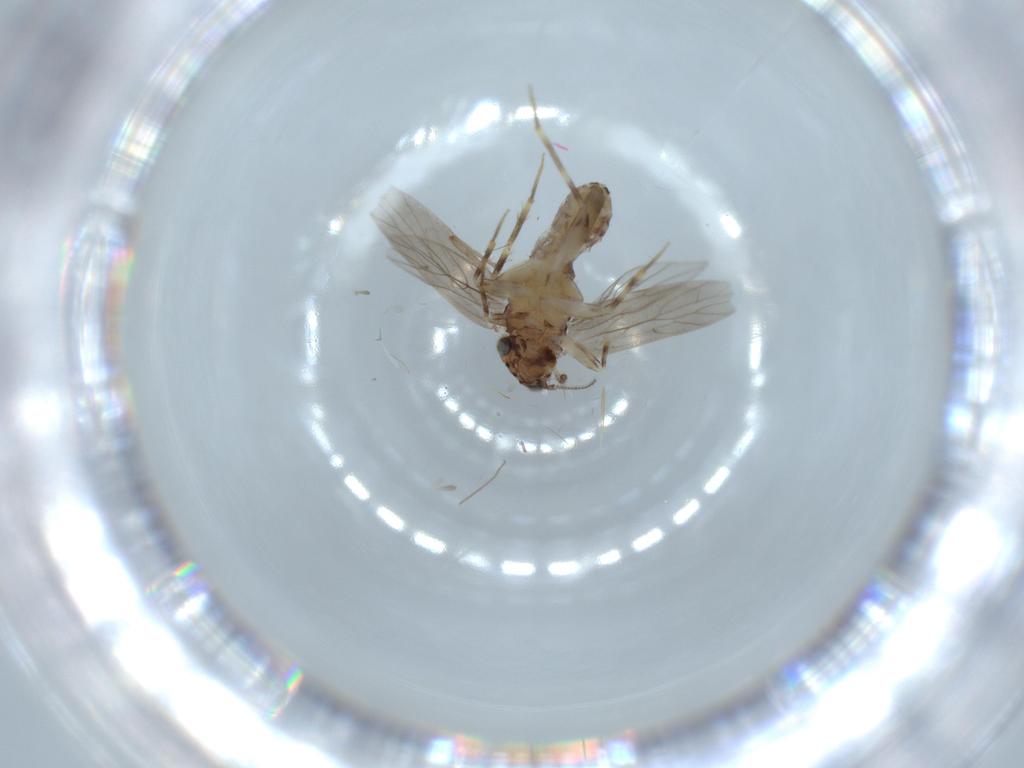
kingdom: Animalia
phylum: Arthropoda
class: Insecta
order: Psocodea
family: Lepidopsocidae
